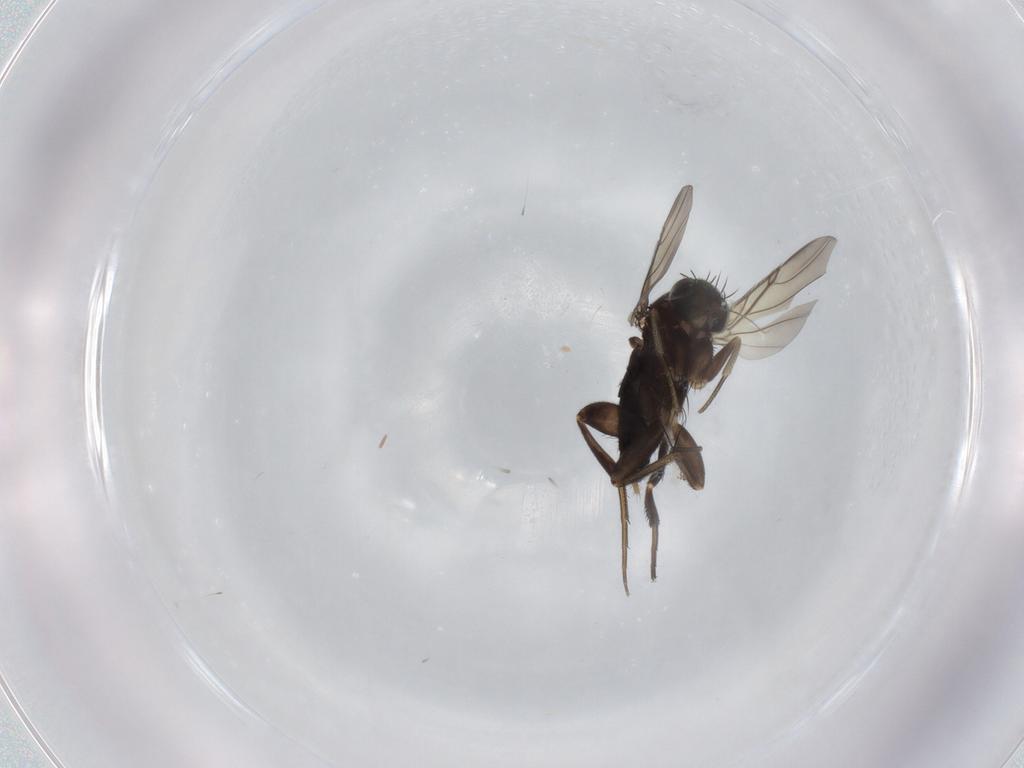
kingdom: Animalia
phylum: Arthropoda
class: Insecta
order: Diptera
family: Phoridae
